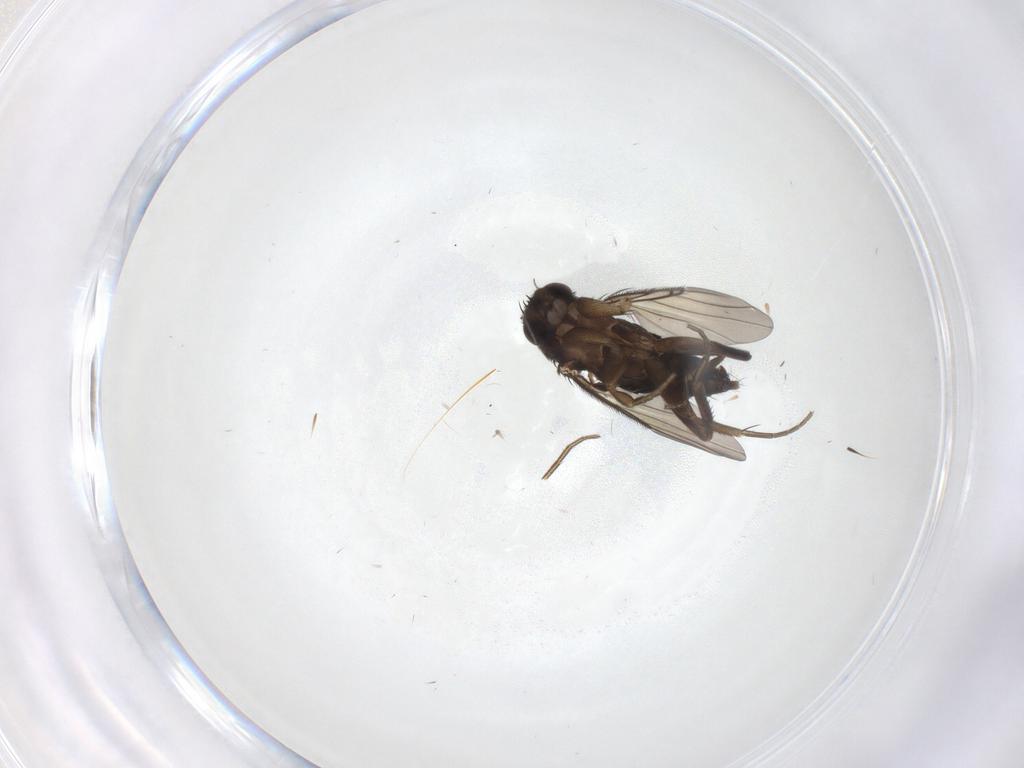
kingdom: Animalia
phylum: Arthropoda
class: Insecta
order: Diptera
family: Phoridae
